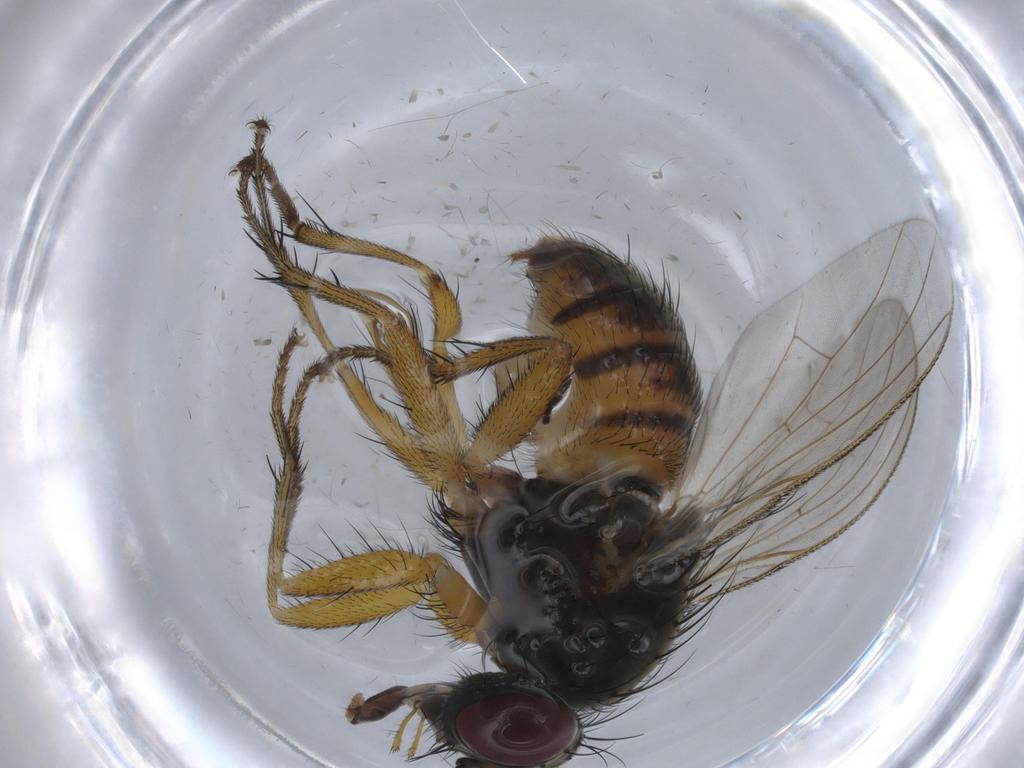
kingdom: Animalia
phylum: Arthropoda
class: Insecta
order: Diptera
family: Muscidae
